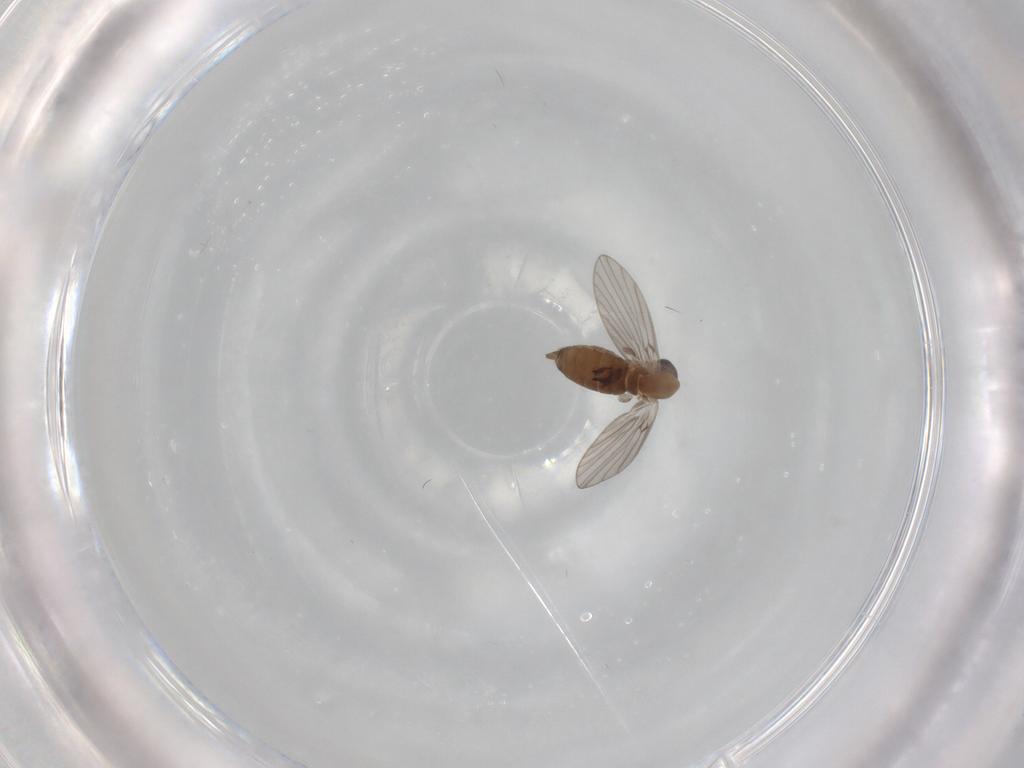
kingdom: Animalia
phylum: Arthropoda
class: Insecta
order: Diptera
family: Psychodidae
